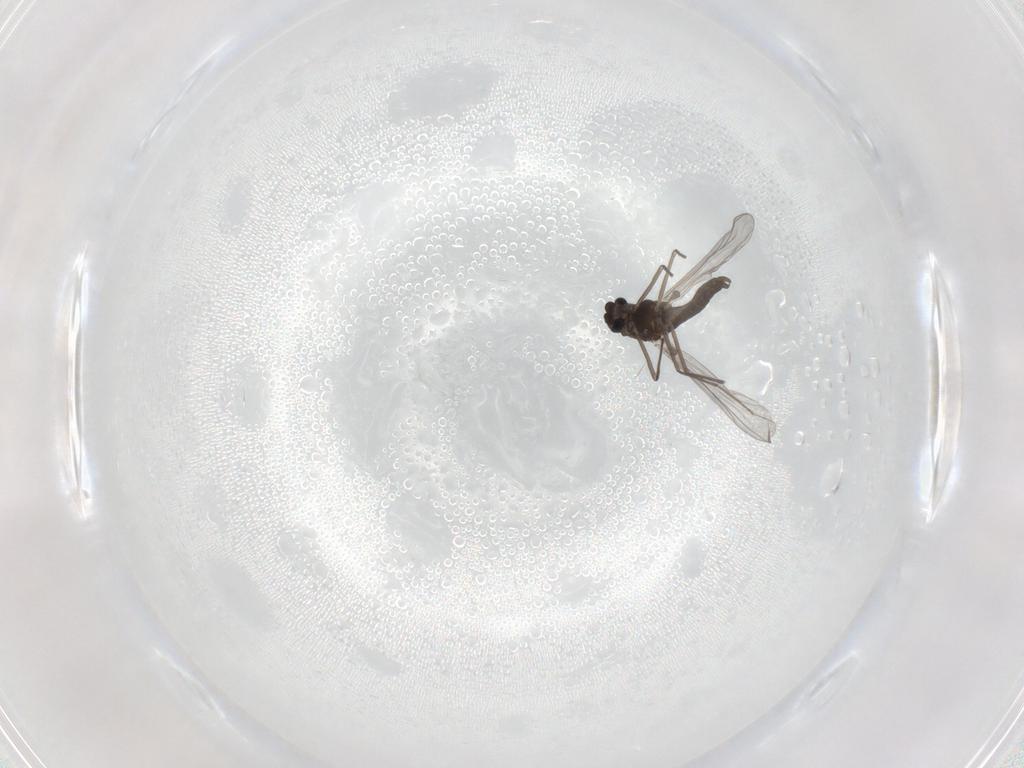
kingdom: Animalia
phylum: Arthropoda
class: Insecta
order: Diptera
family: Chironomidae
